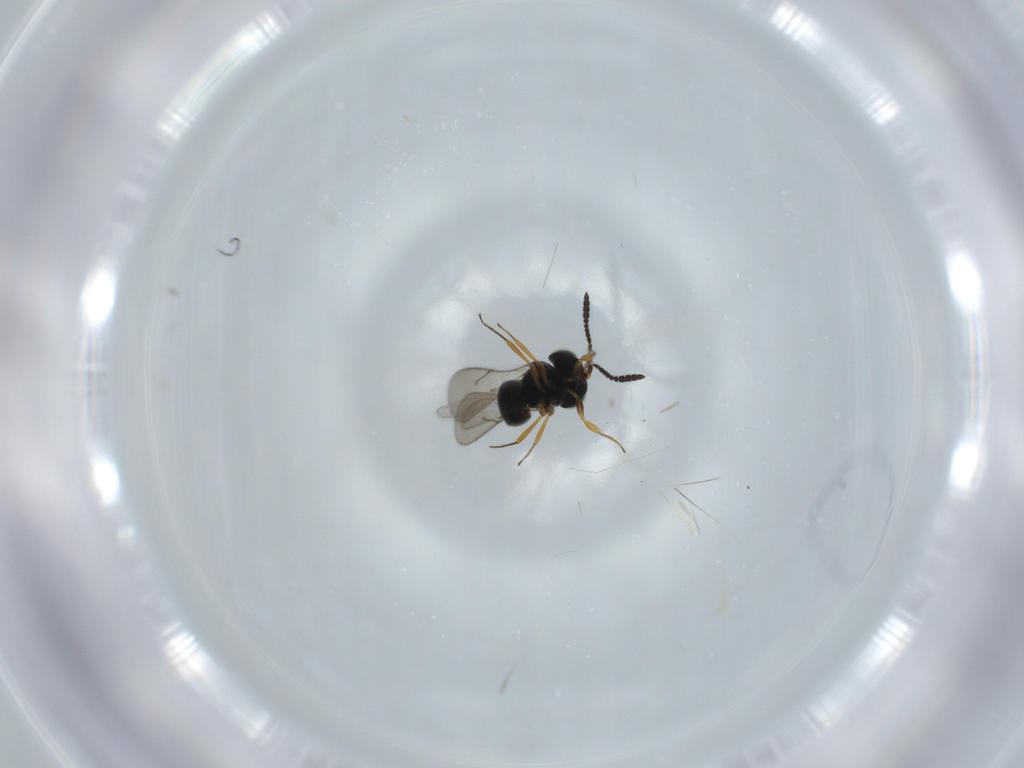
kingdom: Animalia
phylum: Arthropoda
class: Insecta
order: Hymenoptera
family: Scelionidae
